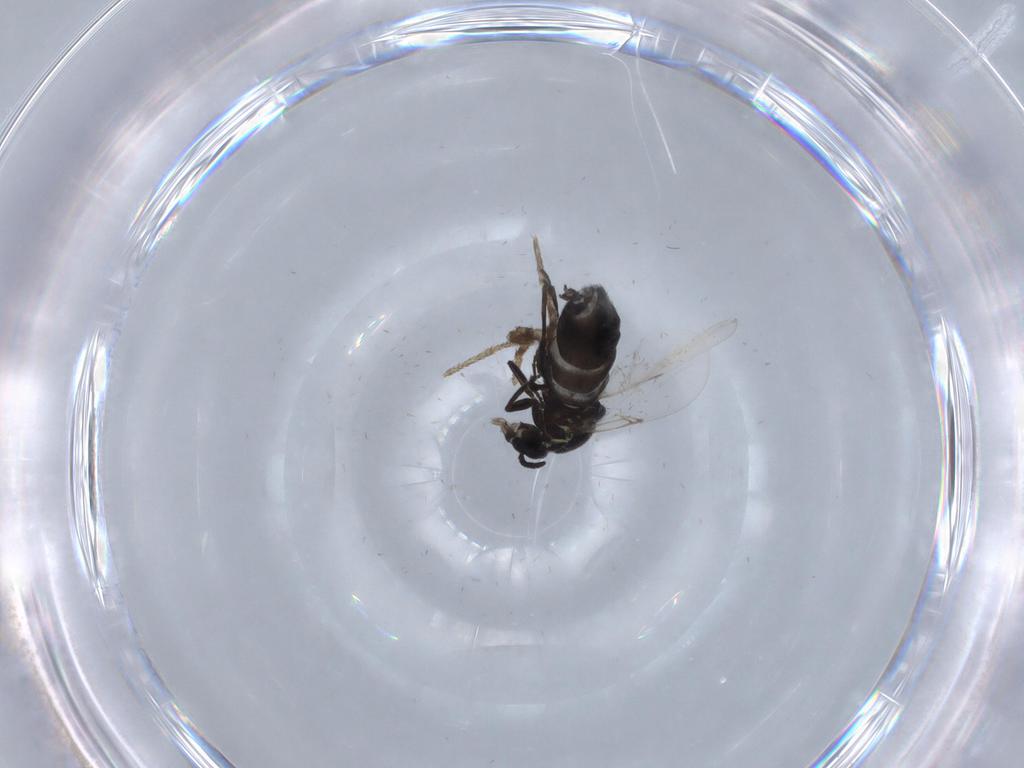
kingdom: Animalia
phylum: Arthropoda
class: Insecta
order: Diptera
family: Scatopsidae
